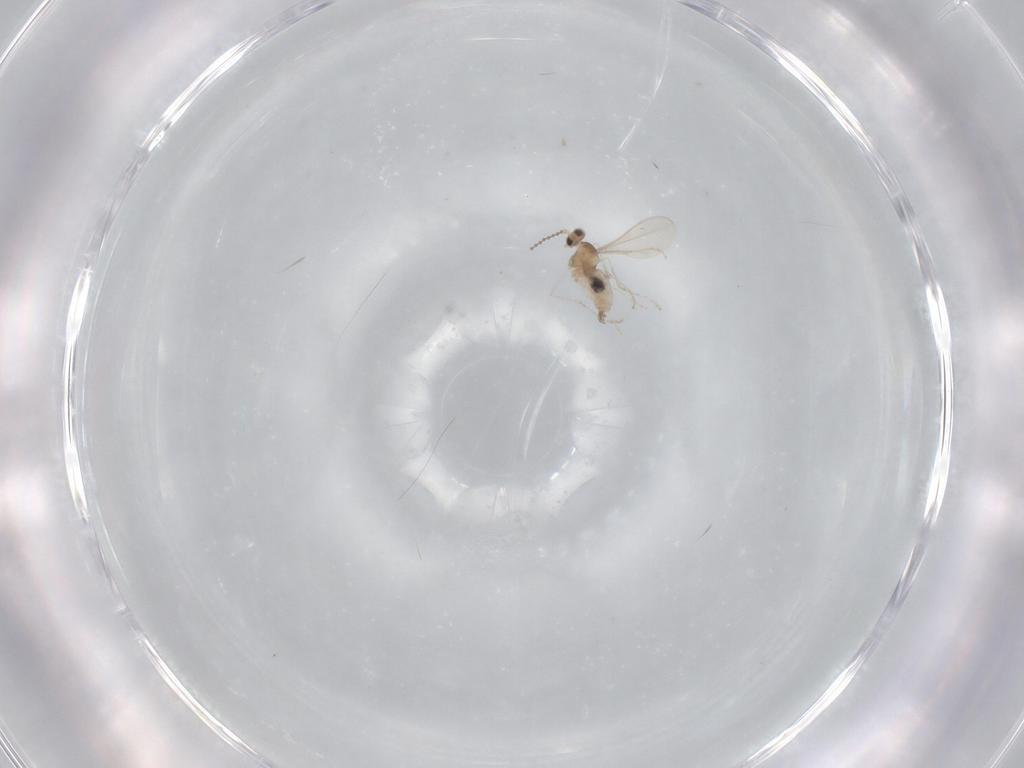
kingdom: Animalia
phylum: Arthropoda
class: Insecta
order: Diptera
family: Cecidomyiidae
